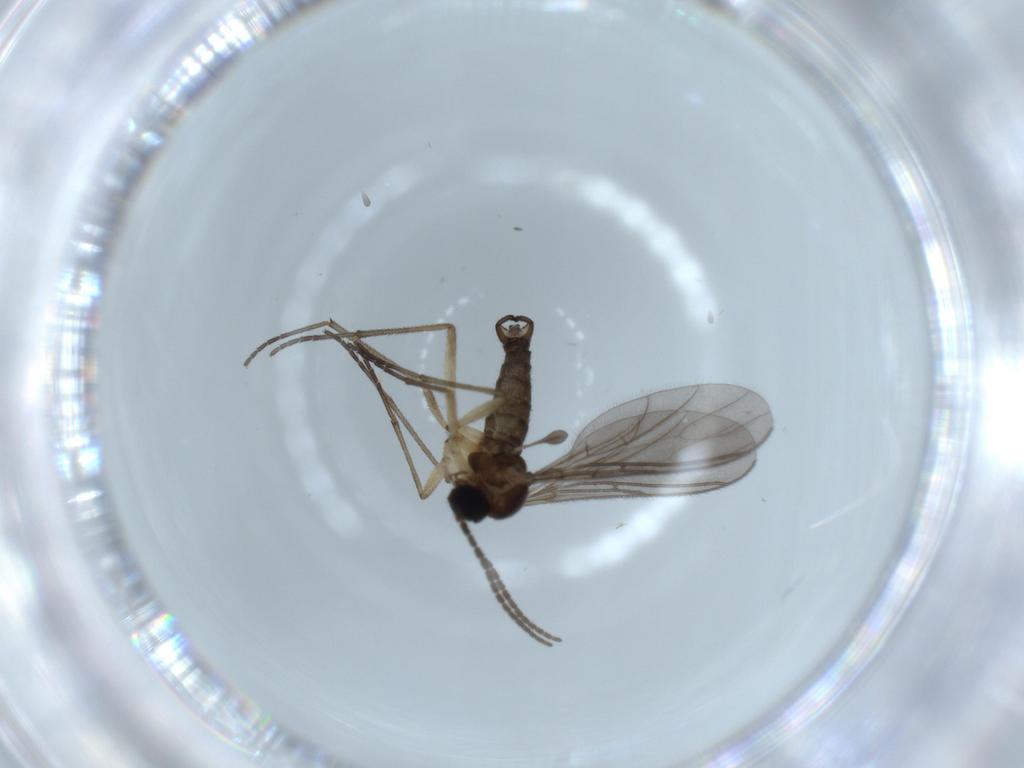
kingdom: Animalia
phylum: Arthropoda
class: Insecta
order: Diptera
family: Sciaridae
